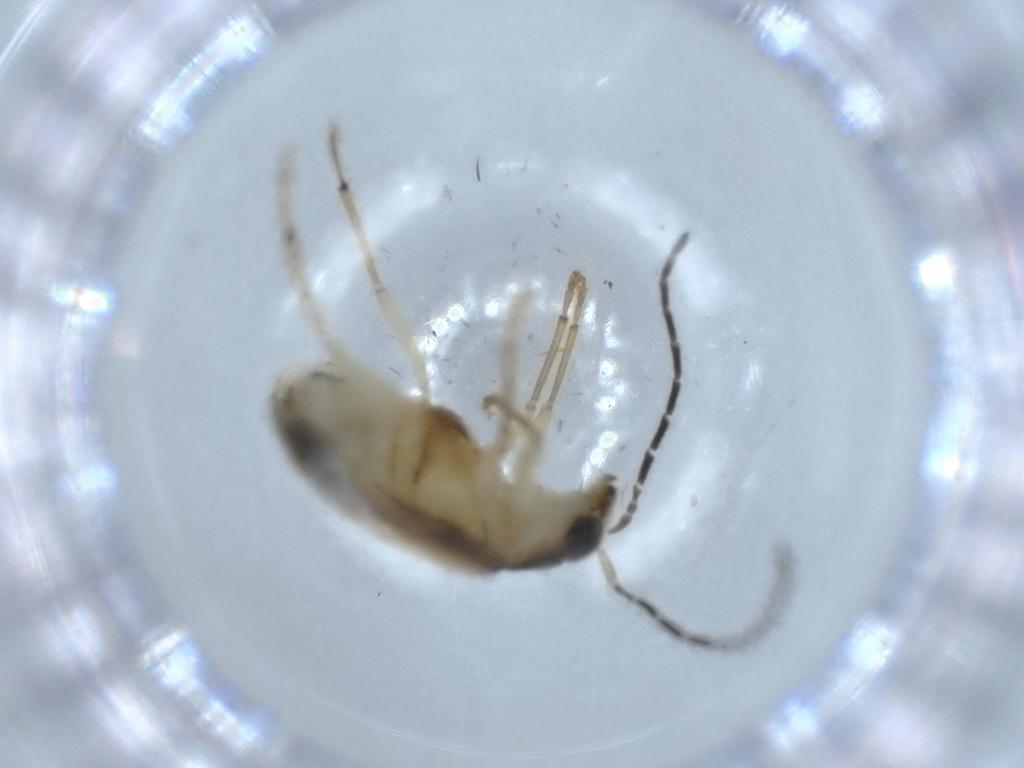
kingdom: Animalia
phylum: Arthropoda
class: Insecta
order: Coleoptera
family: Chrysomelidae
